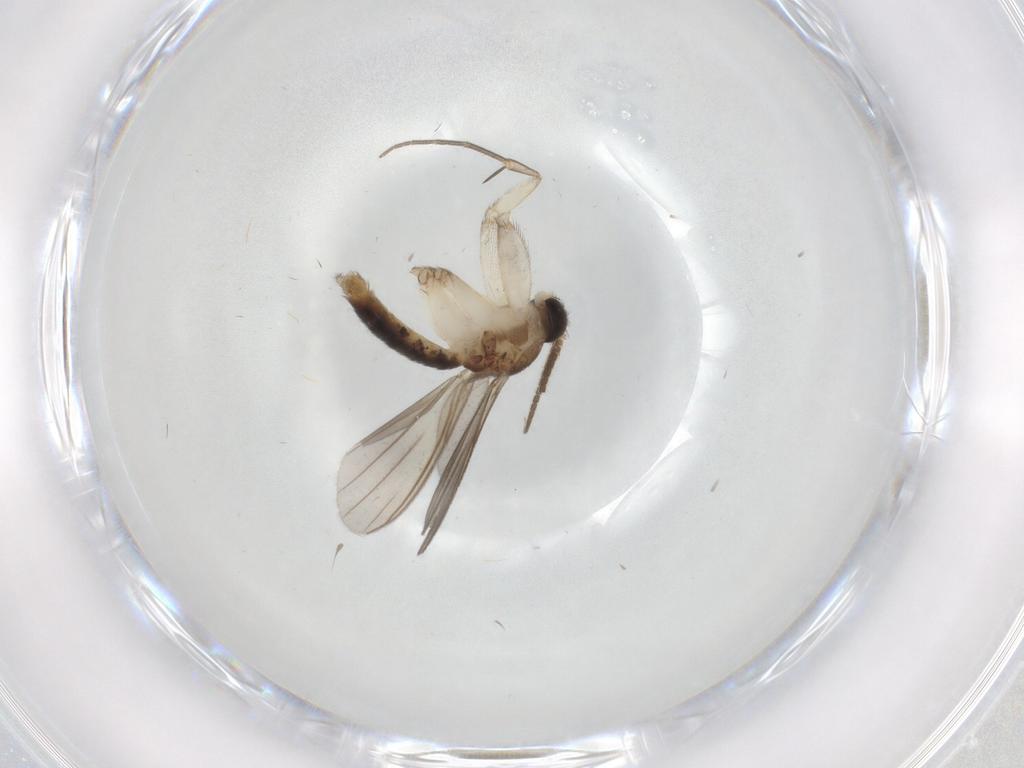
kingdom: Animalia
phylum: Arthropoda
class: Insecta
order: Diptera
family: Mycetophilidae
